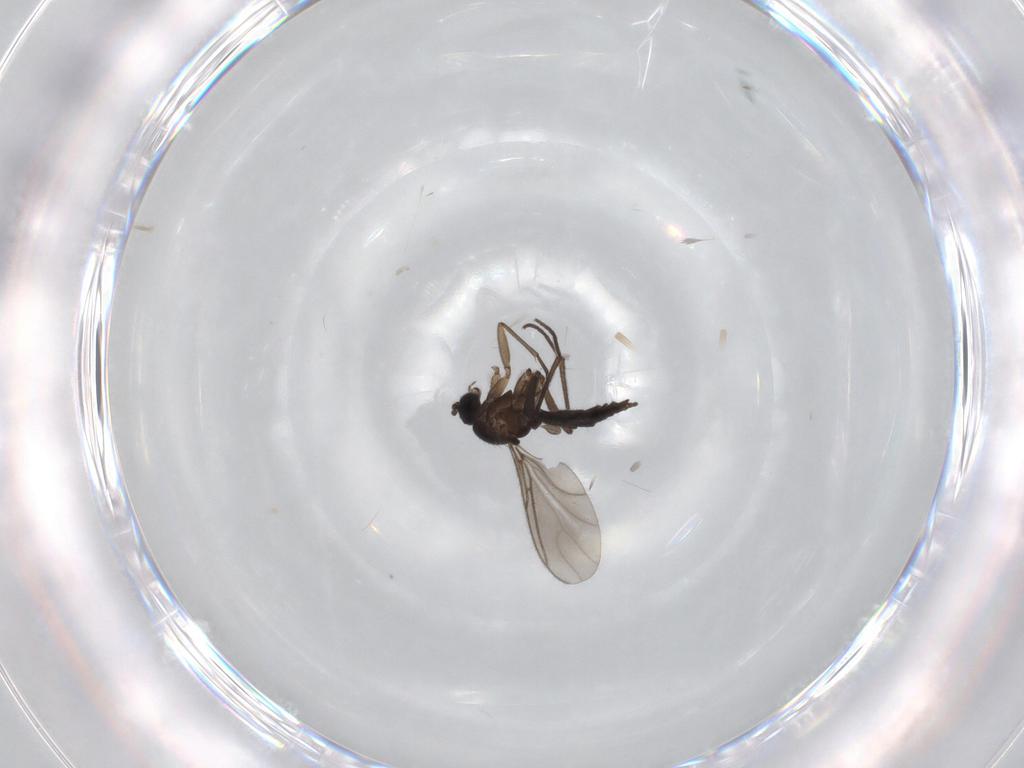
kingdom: Animalia
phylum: Arthropoda
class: Insecta
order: Diptera
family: Sciaridae
